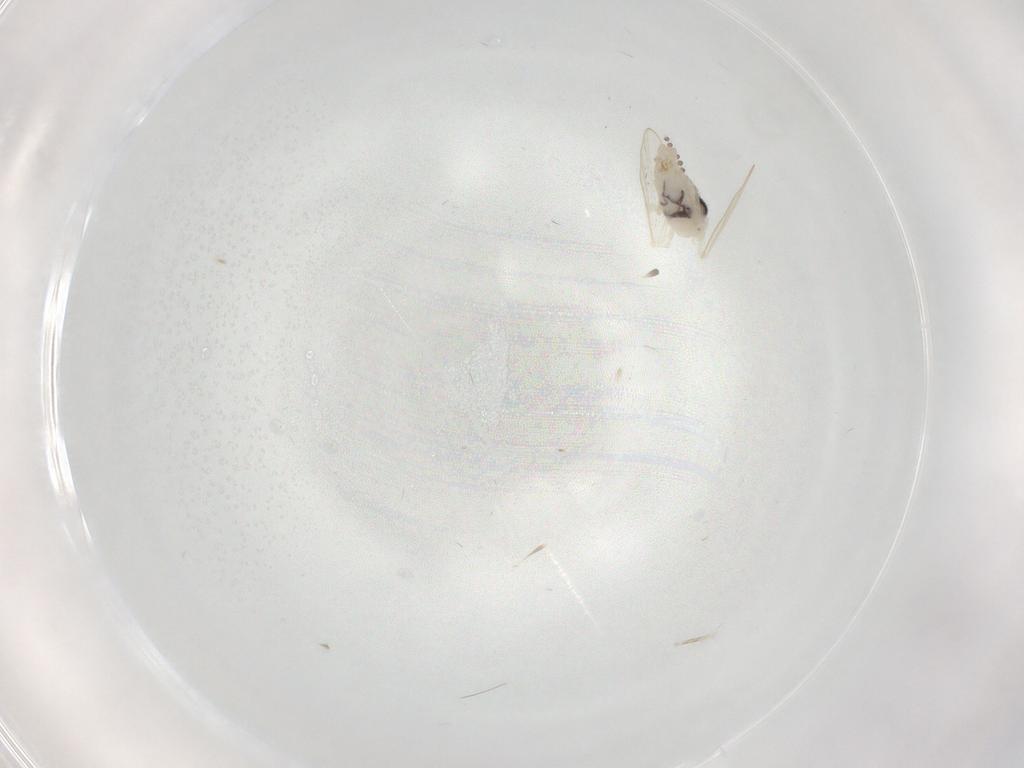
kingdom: Animalia
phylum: Arthropoda
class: Insecta
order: Diptera
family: Psychodidae
